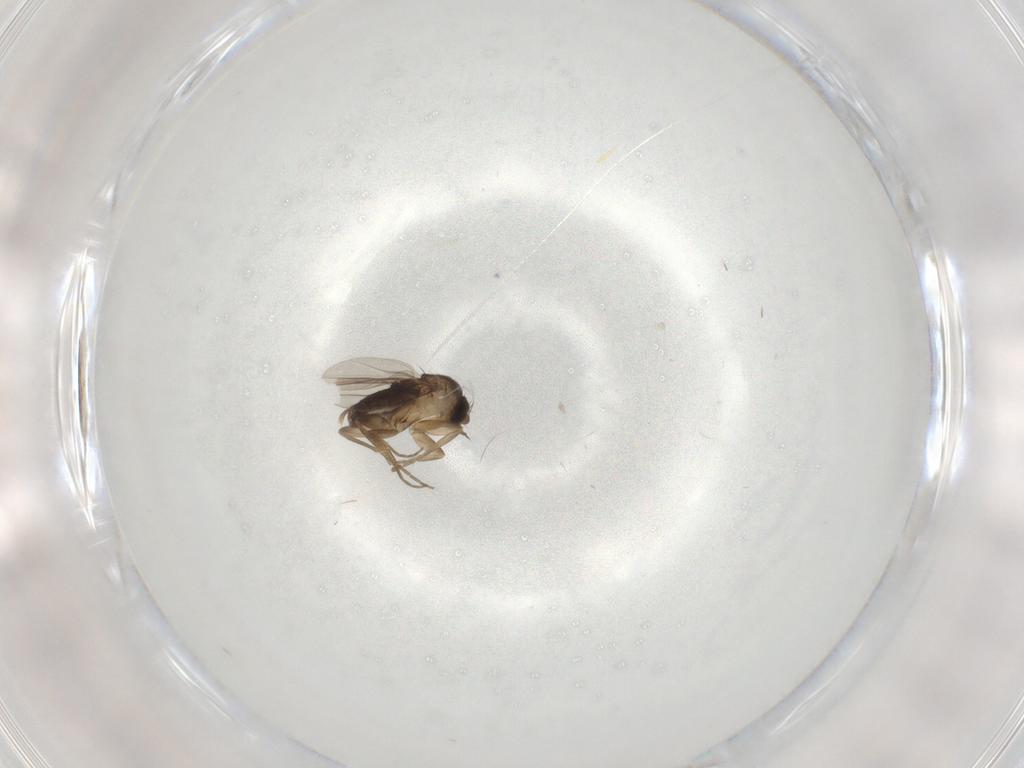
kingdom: Animalia
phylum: Arthropoda
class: Insecta
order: Diptera
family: Phoridae
